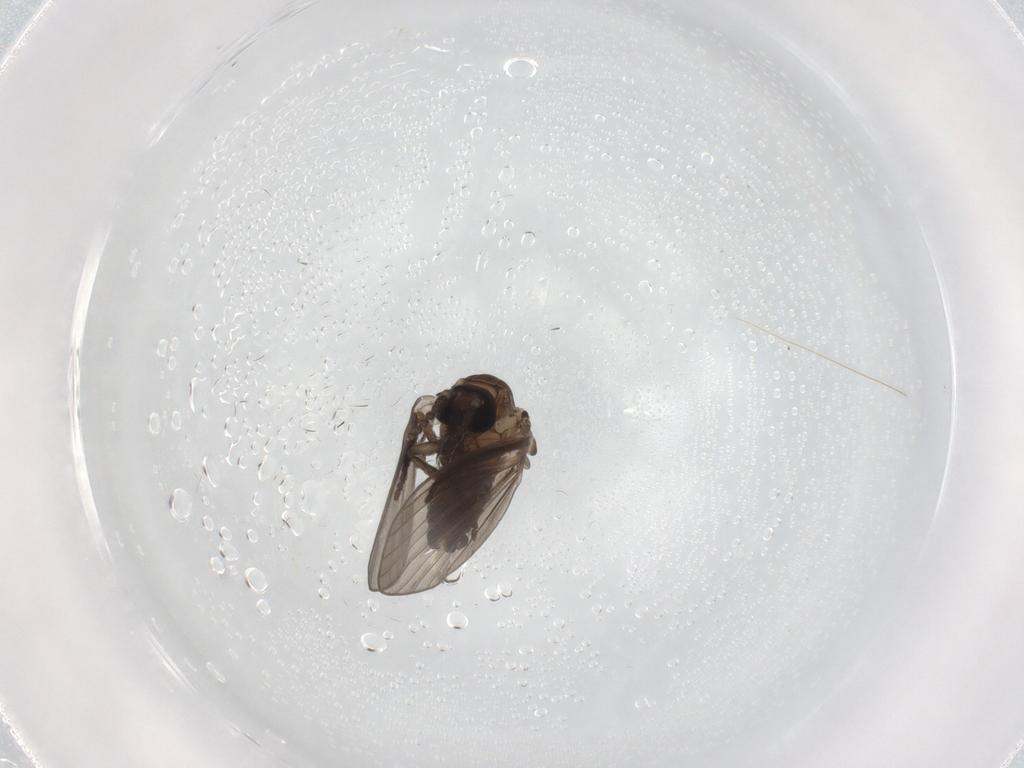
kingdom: Animalia
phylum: Arthropoda
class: Insecta
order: Diptera
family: Psychodidae
